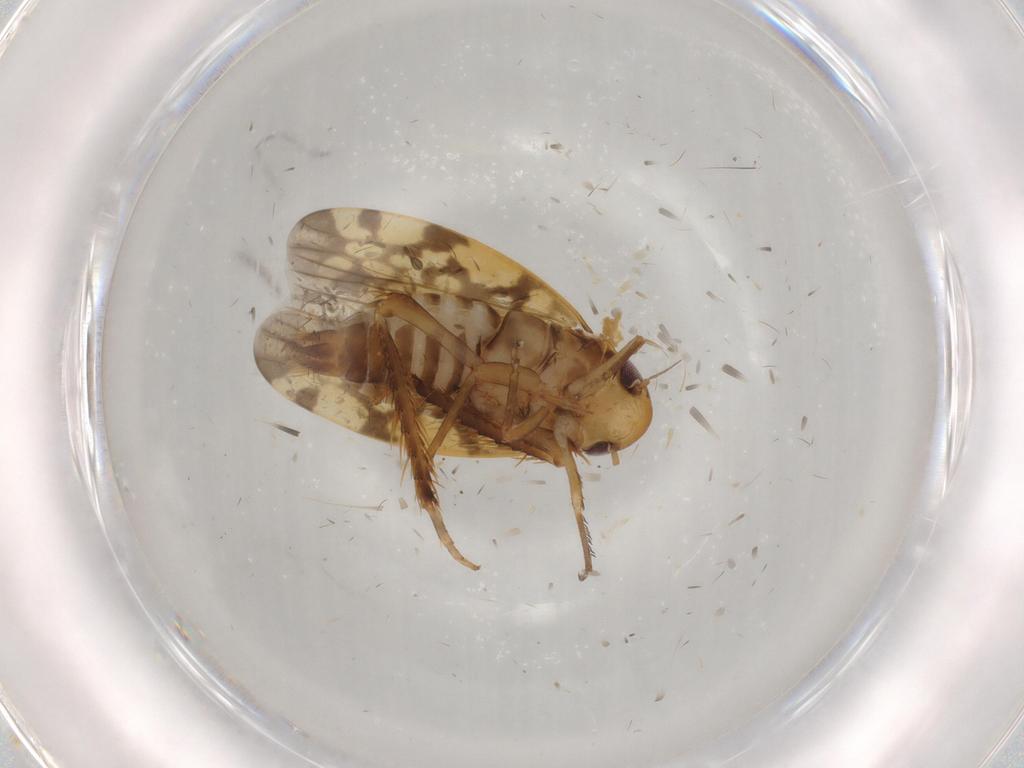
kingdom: Animalia
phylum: Arthropoda
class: Insecta
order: Hemiptera
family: Cicadellidae
